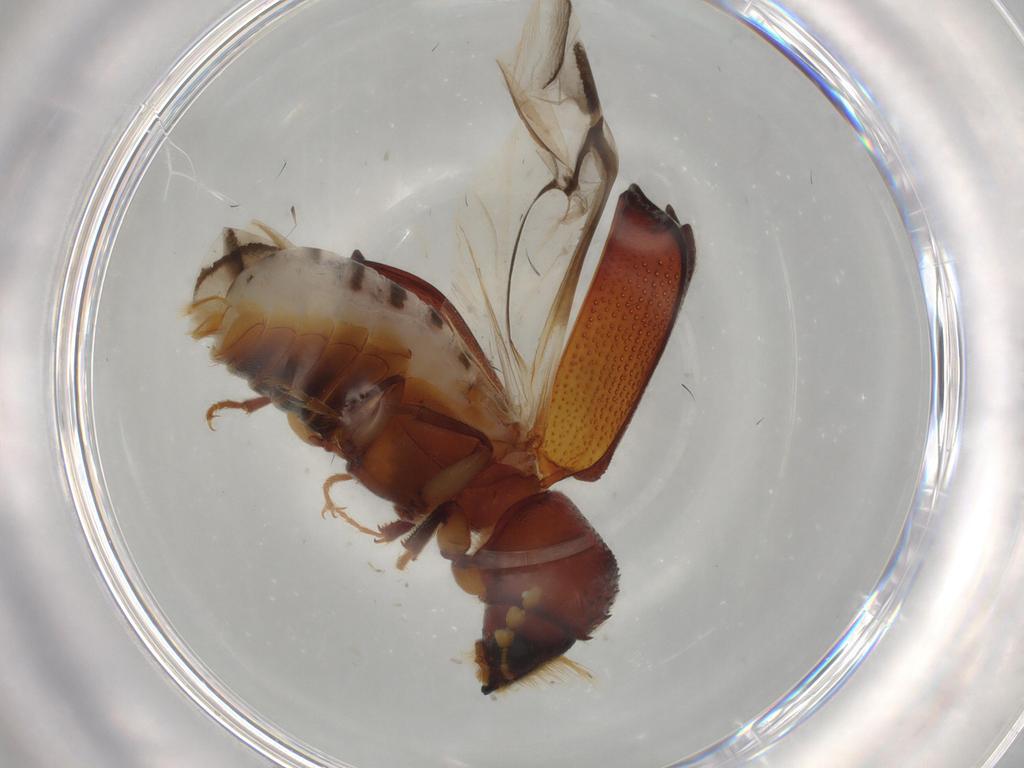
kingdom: Animalia
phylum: Arthropoda
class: Insecta
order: Coleoptera
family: Bostrichidae
